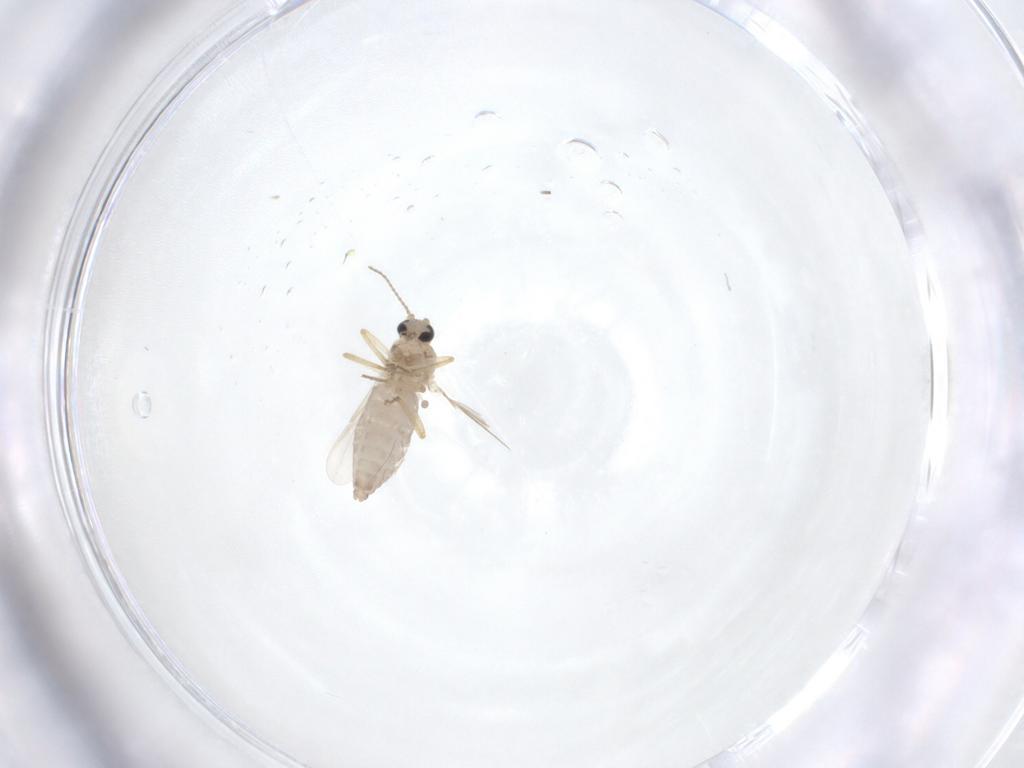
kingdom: Animalia
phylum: Arthropoda
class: Insecta
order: Diptera
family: Ceratopogonidae
